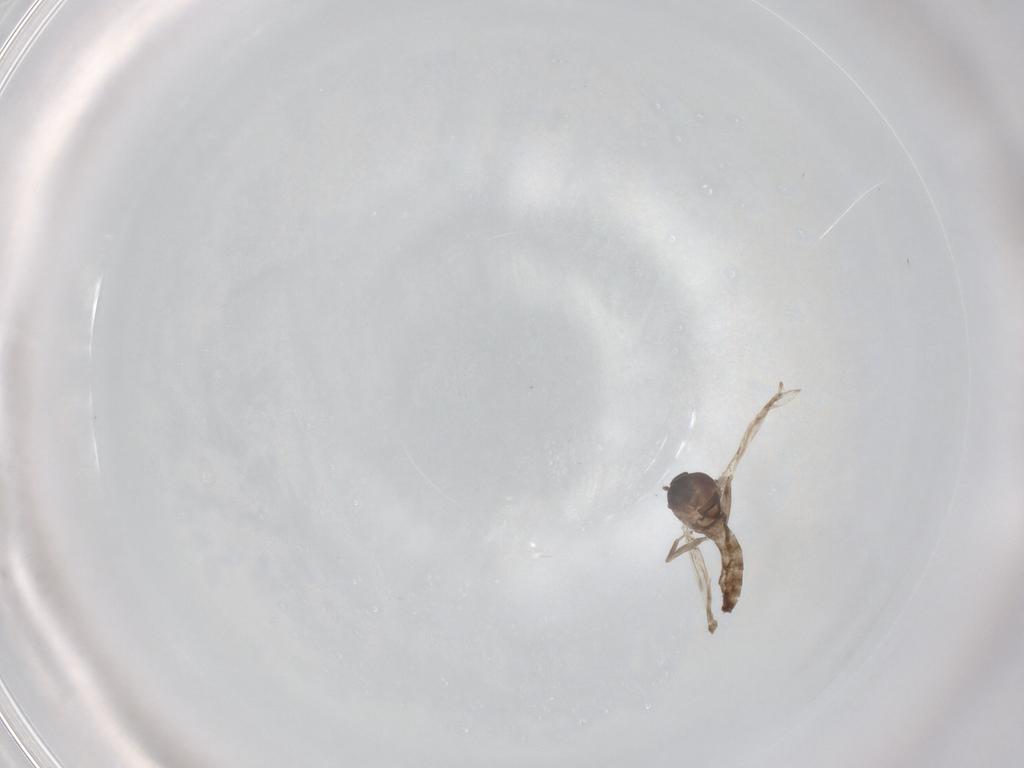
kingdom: Animalia
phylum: Arthropoda
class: Insecta
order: Diptera
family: Ceratopogonidae
